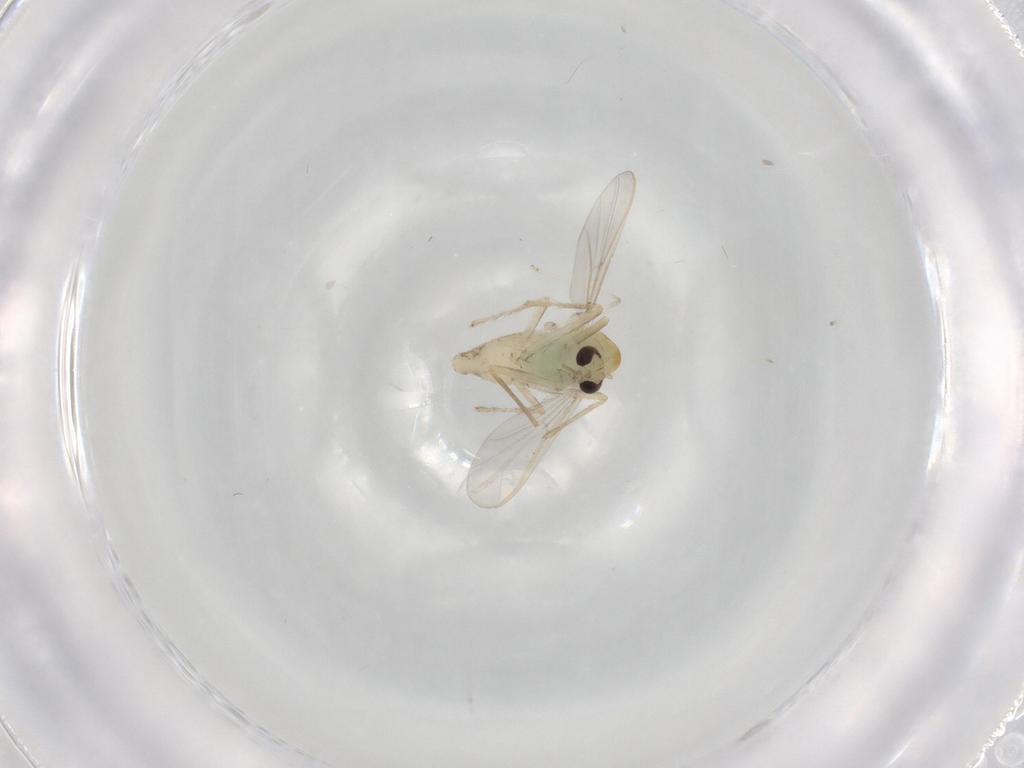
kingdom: Animalia
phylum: Arthropoda
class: Insecta
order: Diptera
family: Chironomidae
